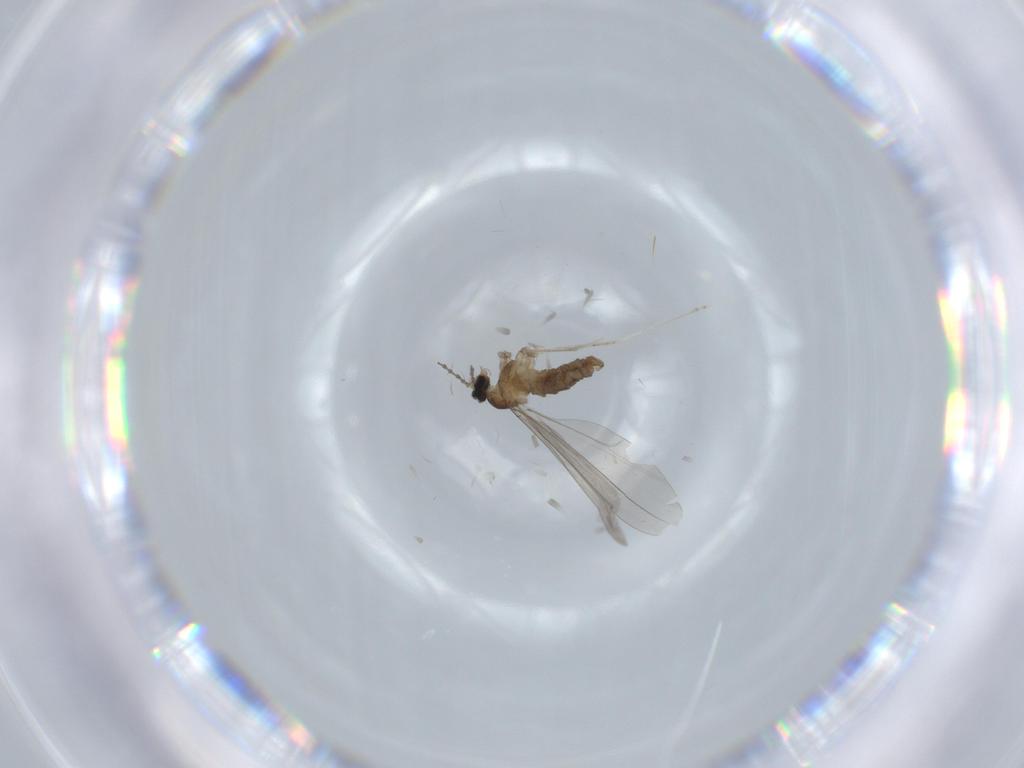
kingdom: Animalia
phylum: Arthropoda
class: Insecta
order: Diptera
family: Cecidomyiidae
